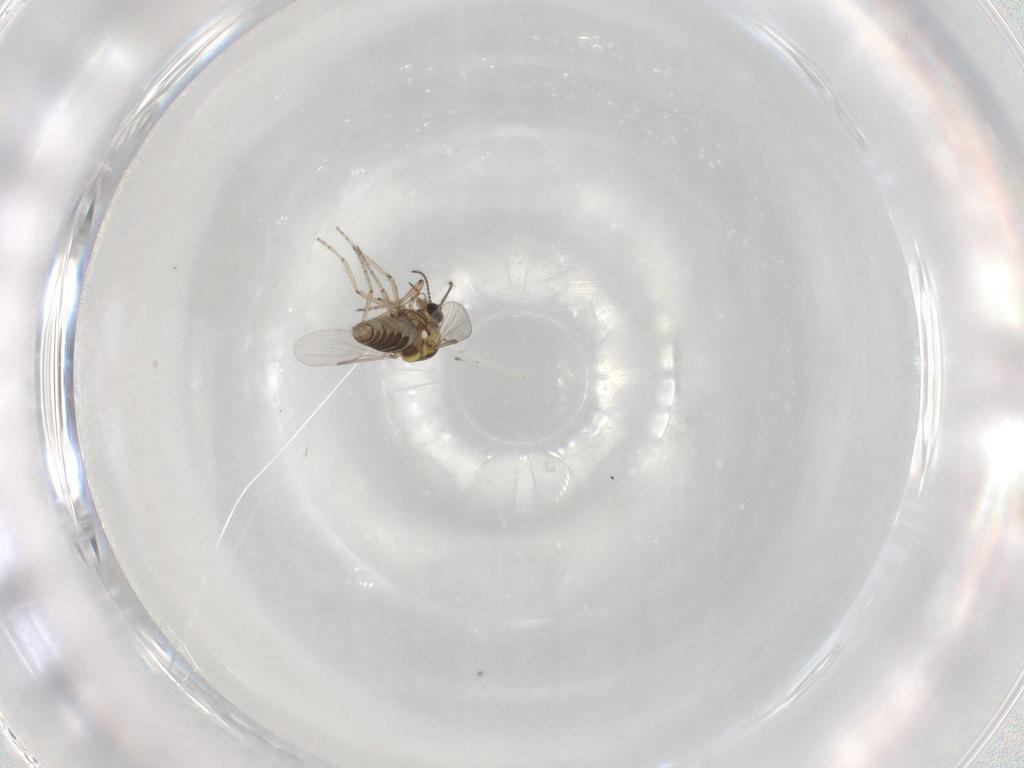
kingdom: Animalia
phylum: Arthropoda
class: Insecta
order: Diptera
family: Ceratopogonidae
